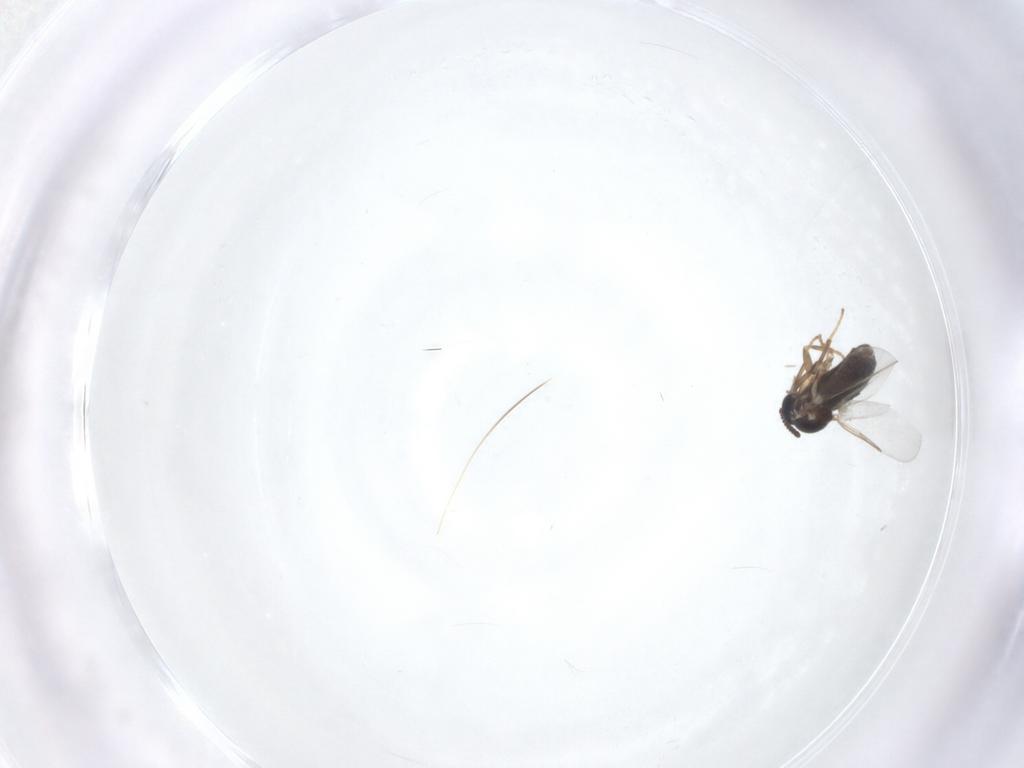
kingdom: Animalia
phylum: Arthropoda
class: Insecta
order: Diptera
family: Scatopsidae
